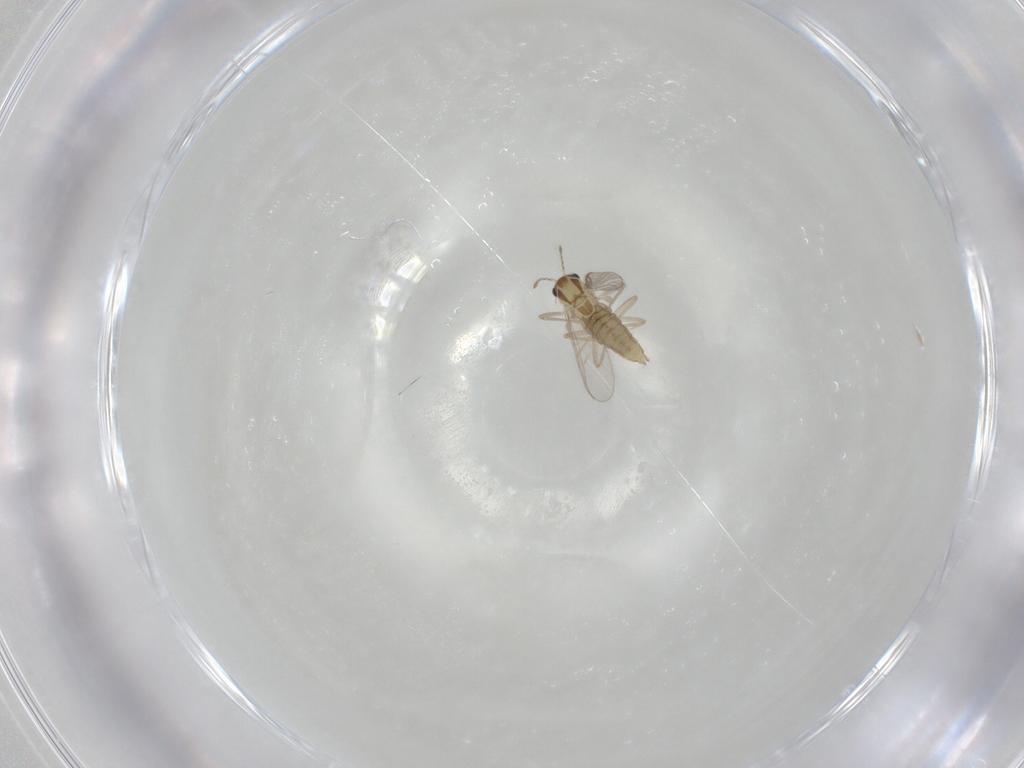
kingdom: Animalia
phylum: Arthropoda
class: Insecta
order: Diptera
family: Chironomidae
